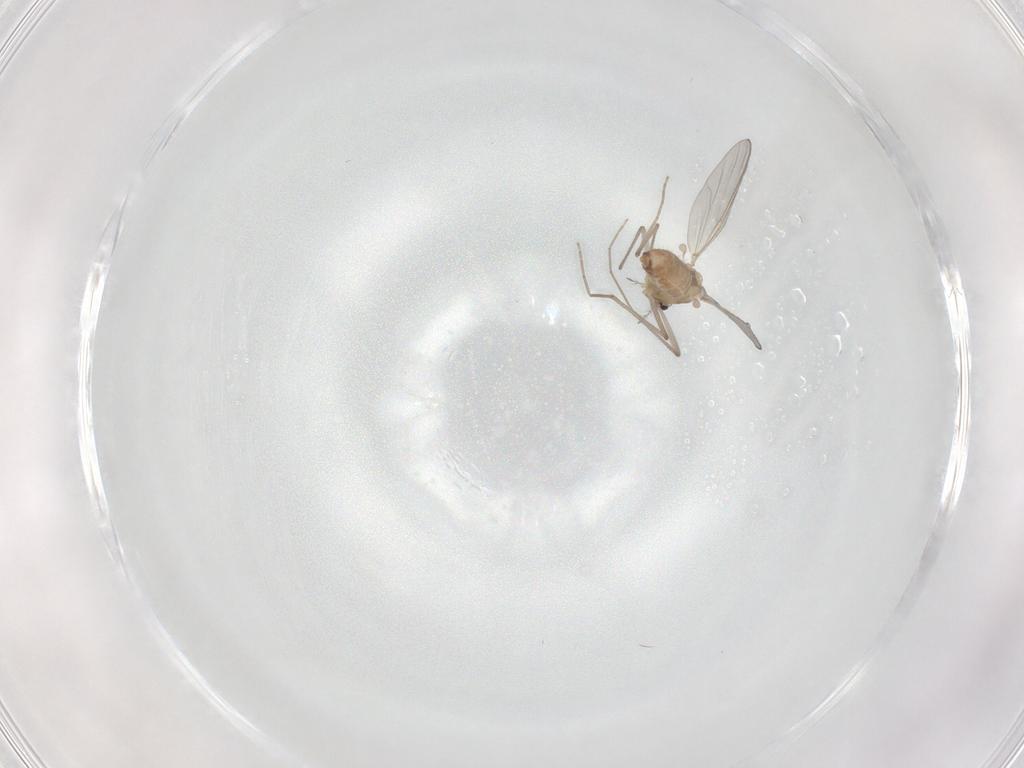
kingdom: Animalia
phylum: Arthropoda
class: Insecta
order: Diptera
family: Chironomidae
